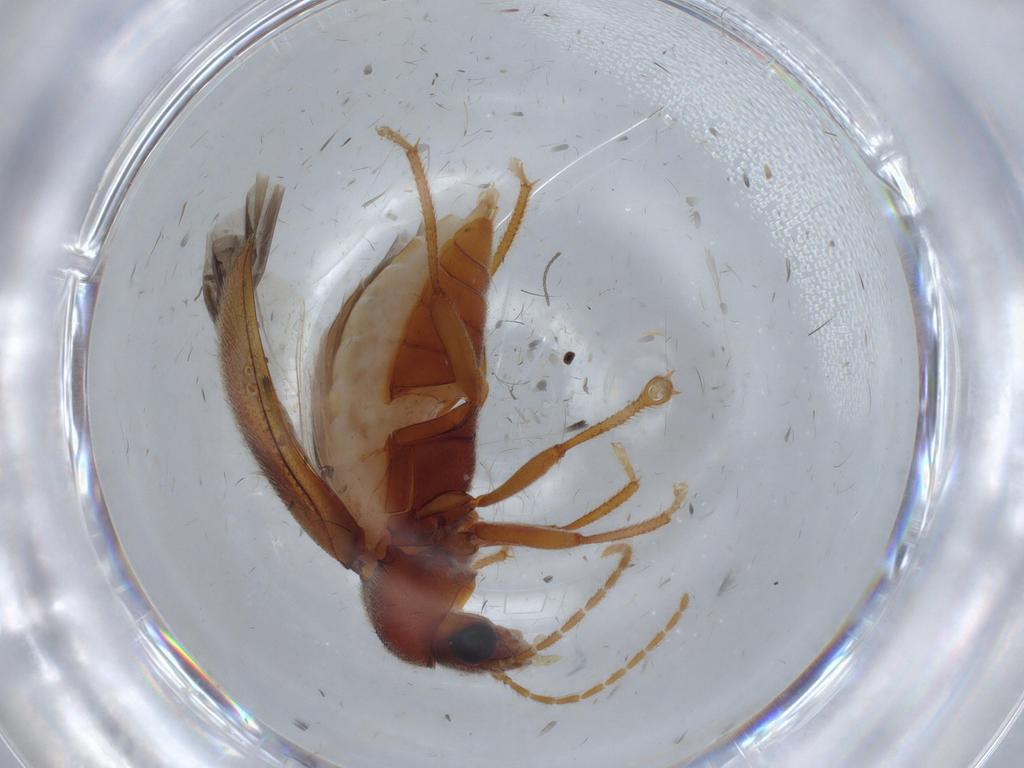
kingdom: Animalia
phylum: Arthropoda
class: Insecta
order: Coleoptera
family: Ptilodactylidae
